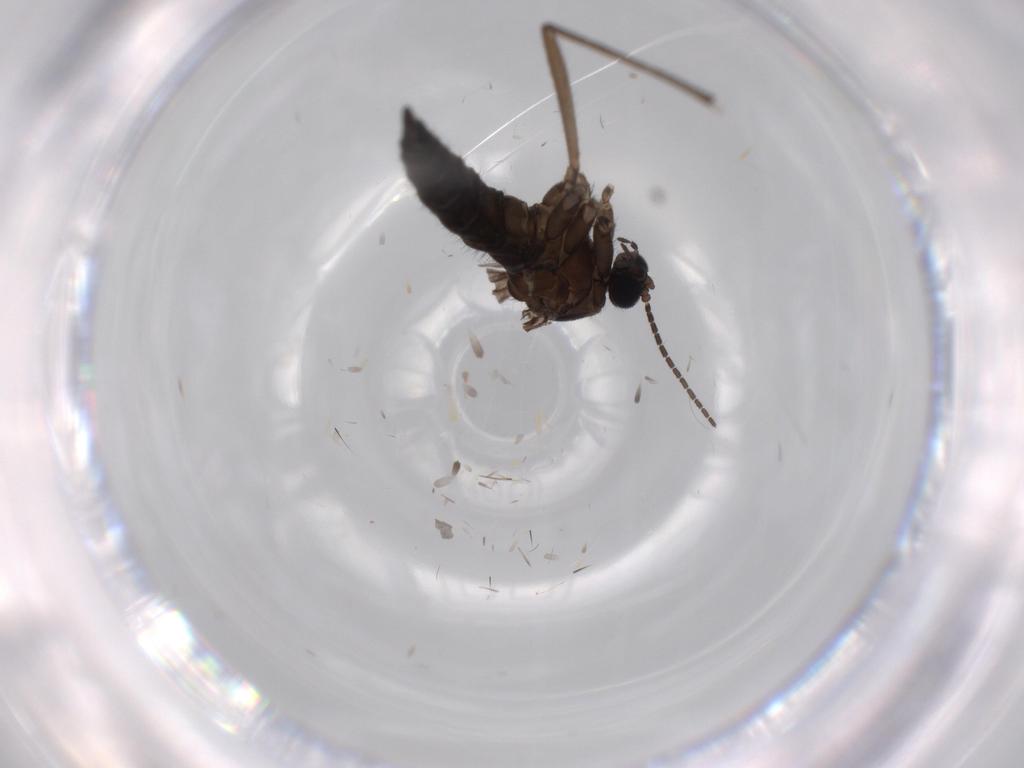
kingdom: Animalia
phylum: Arthropoda
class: Insecta
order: Diptera
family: Sciaridae
